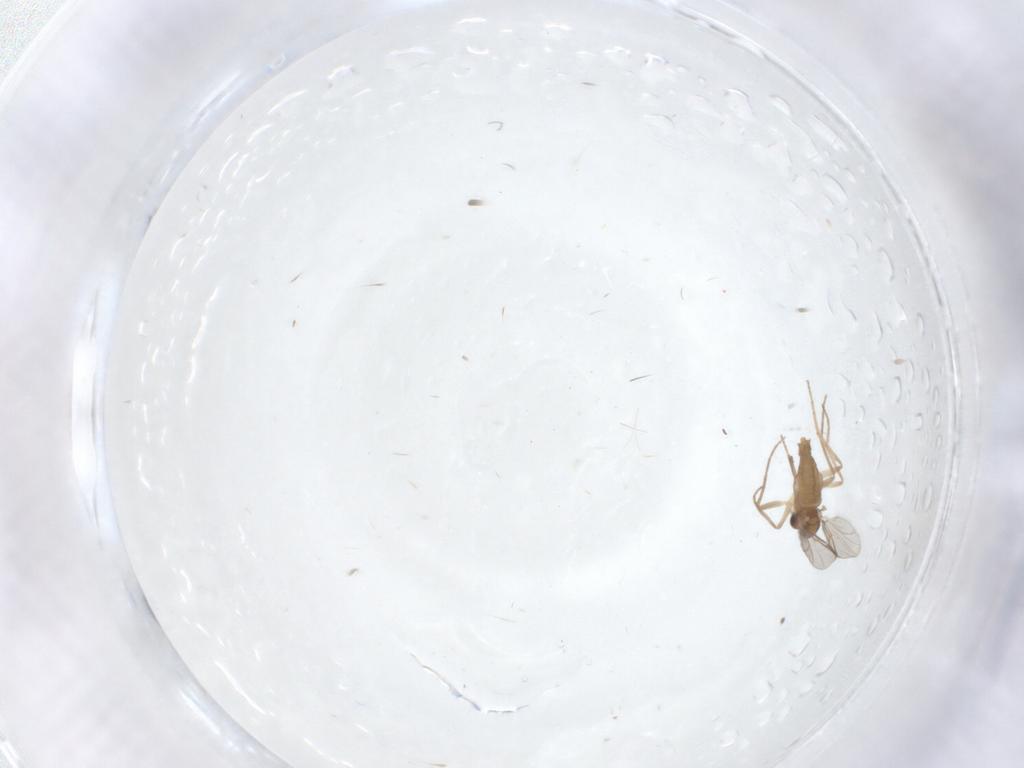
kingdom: Animalia
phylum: Arthropoda
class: Insecta
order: Diptera
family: Chironomidae
